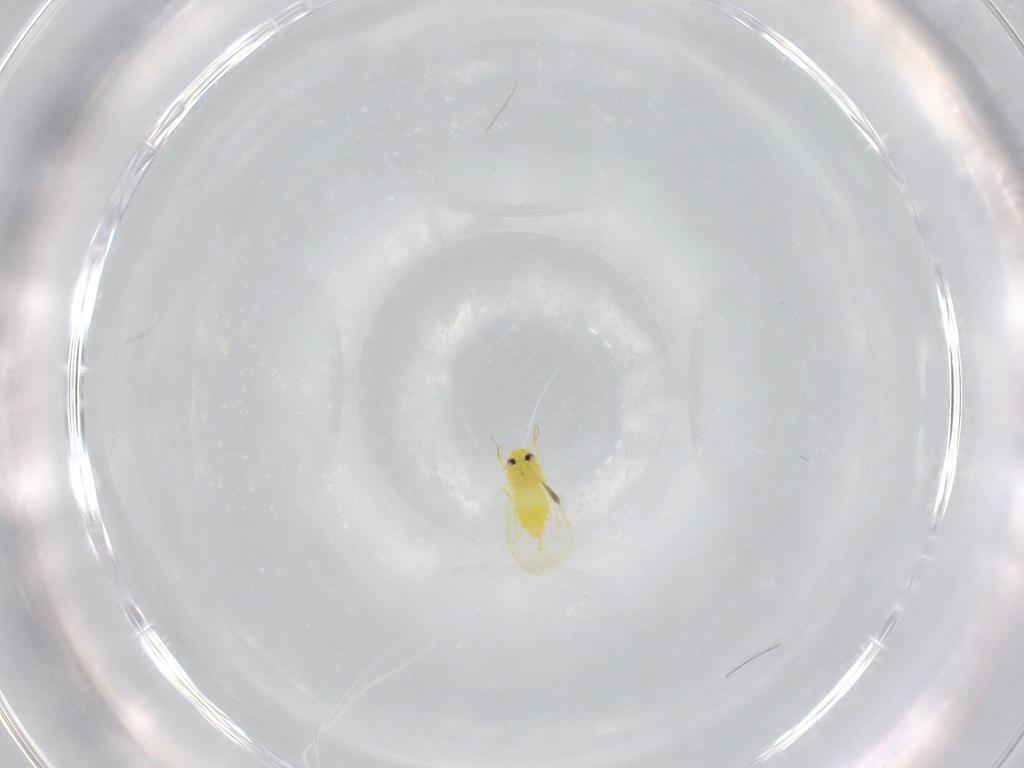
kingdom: Animalia
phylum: Arthropoda
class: Insecta
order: Hemiptera
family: Aleyrodidae
